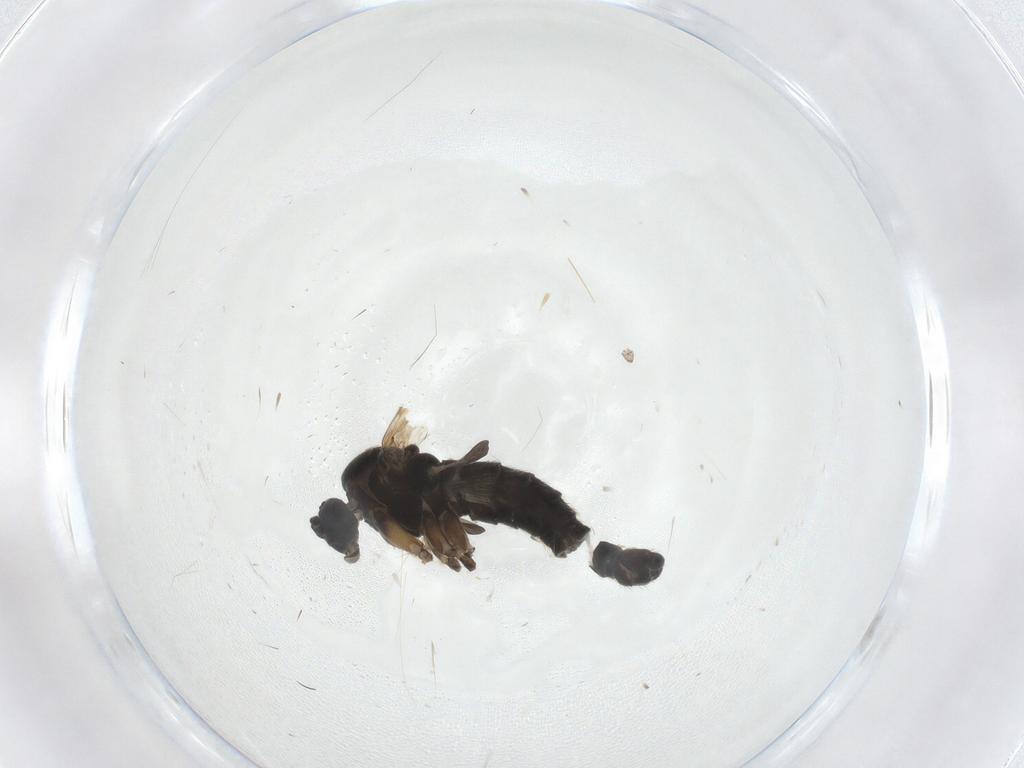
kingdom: Animalia
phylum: Arthropoda
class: Insecta
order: Diptera
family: Sciaridae
